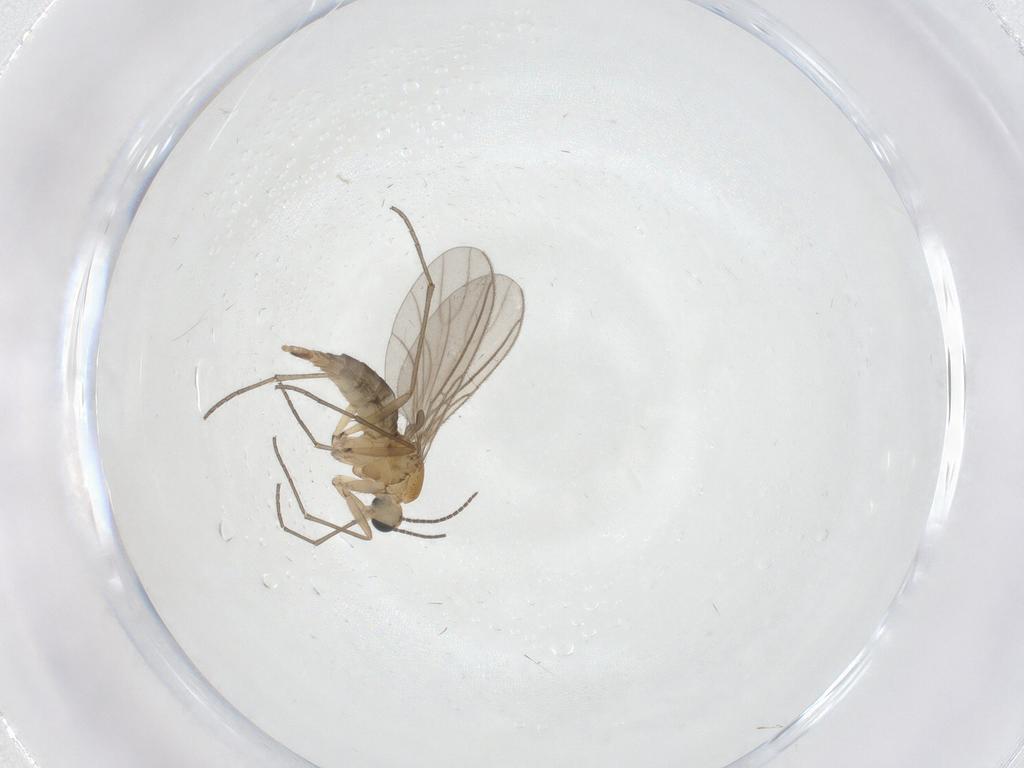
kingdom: Animalia
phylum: Arthropoda
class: Insecta
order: Diptera
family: Sciaridae
